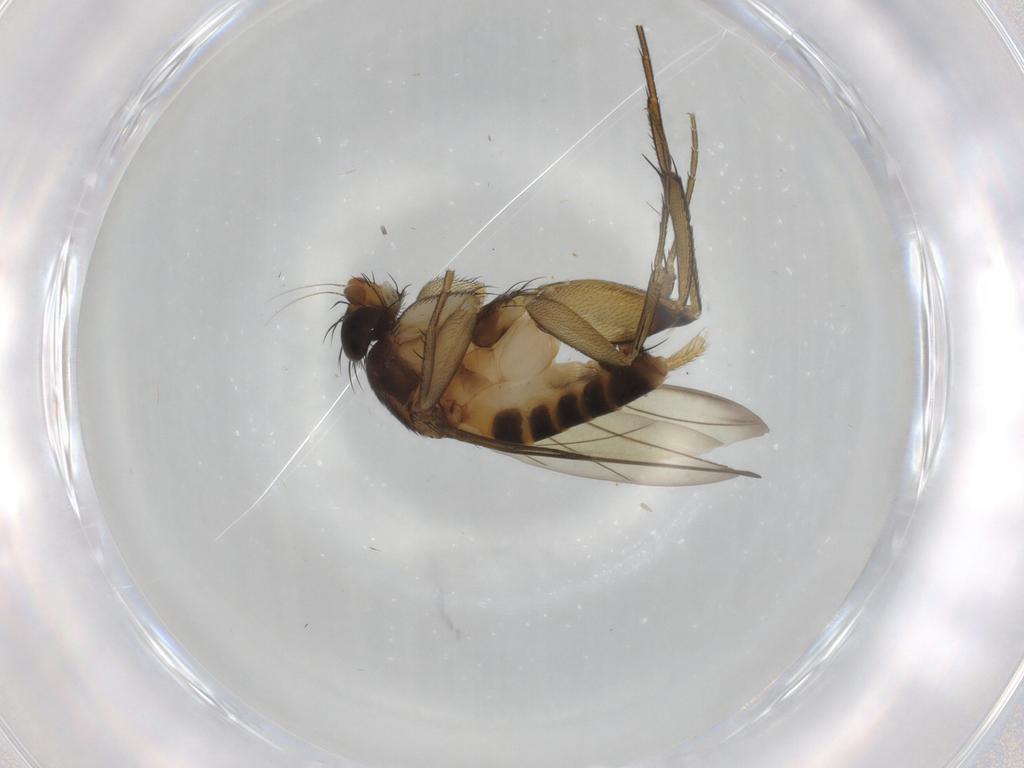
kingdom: Animalia
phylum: Arthropoda
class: Insecta
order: Diptera
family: Phoridae
